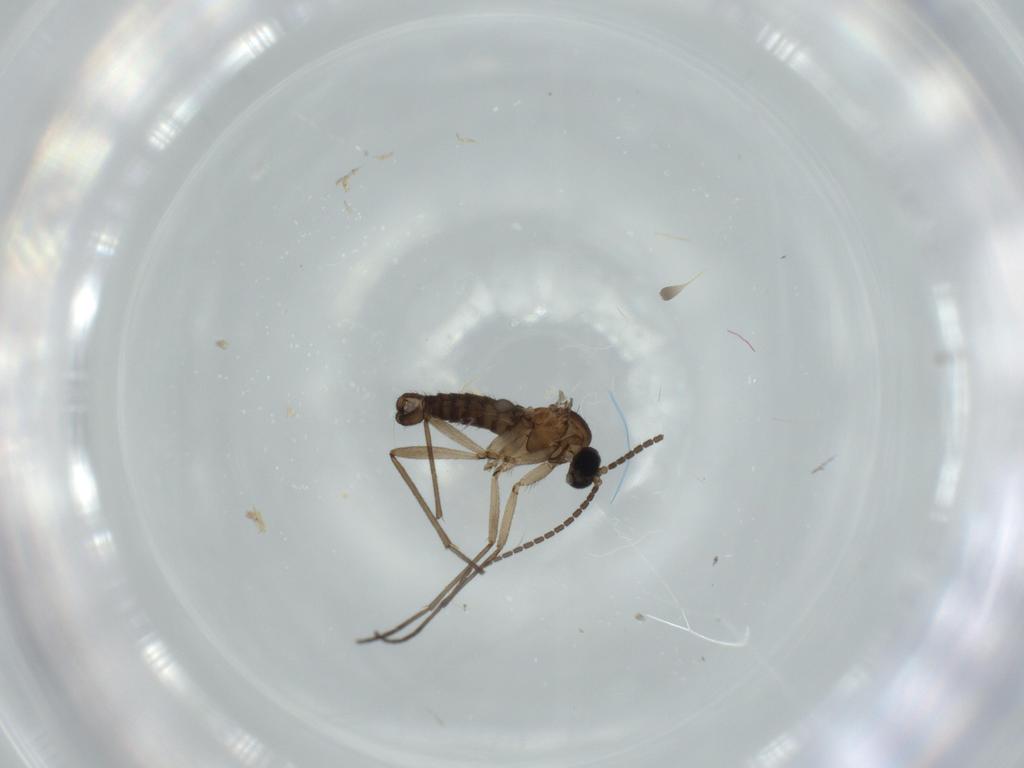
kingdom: Animalia
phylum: Arthropoda
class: Insecta
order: Diptera
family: Sciaridae
